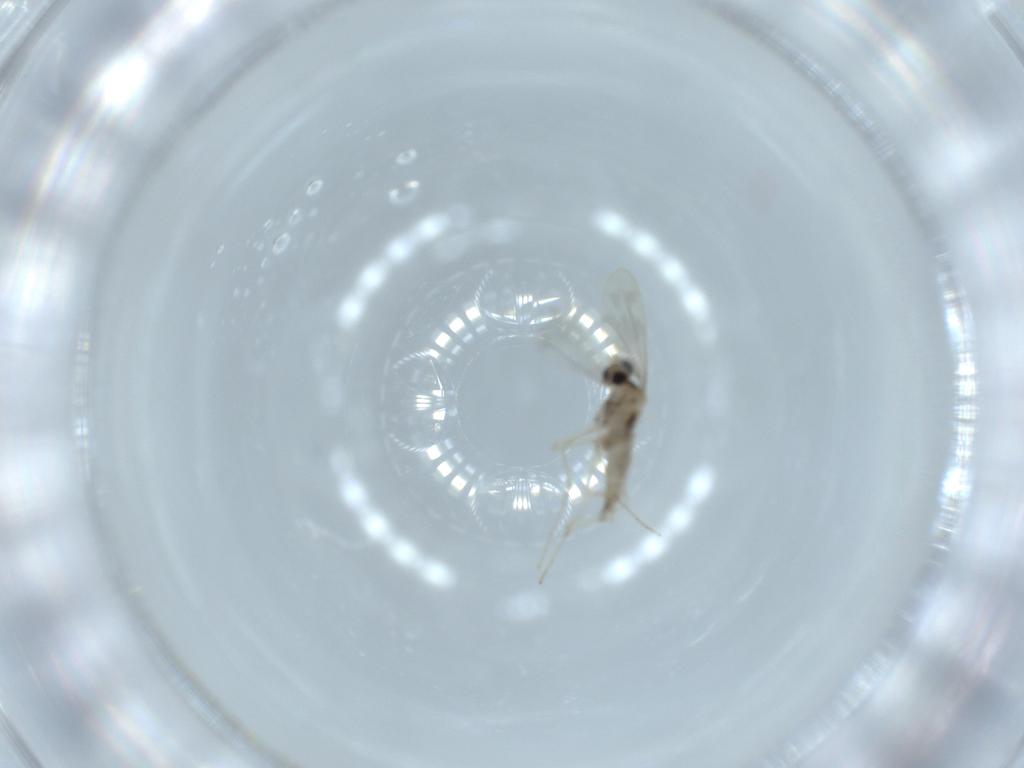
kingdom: Animalia
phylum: Arthropoda
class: Insecta
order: Diptera
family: Cecidomyiidae
